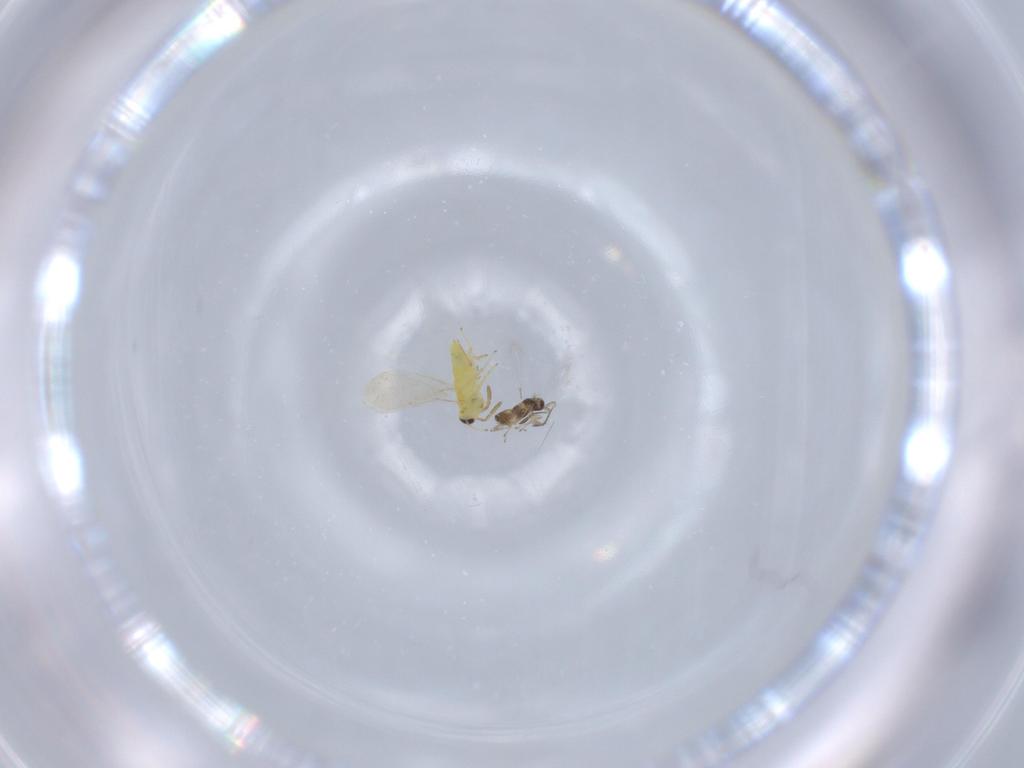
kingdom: Animalia
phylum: Arthropoda
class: Insecta
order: Hymenoptera
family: Aphelinidae
